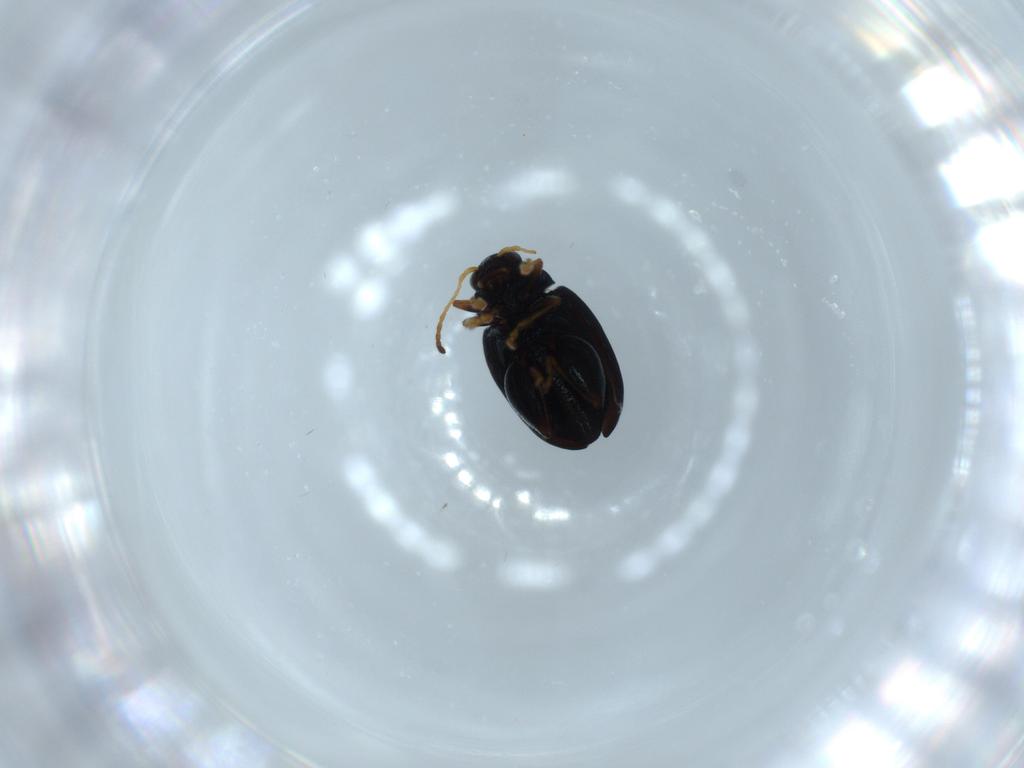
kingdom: Animalia
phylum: Arthropoda
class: Insecta
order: Coleoptera
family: Chrysomelidae
